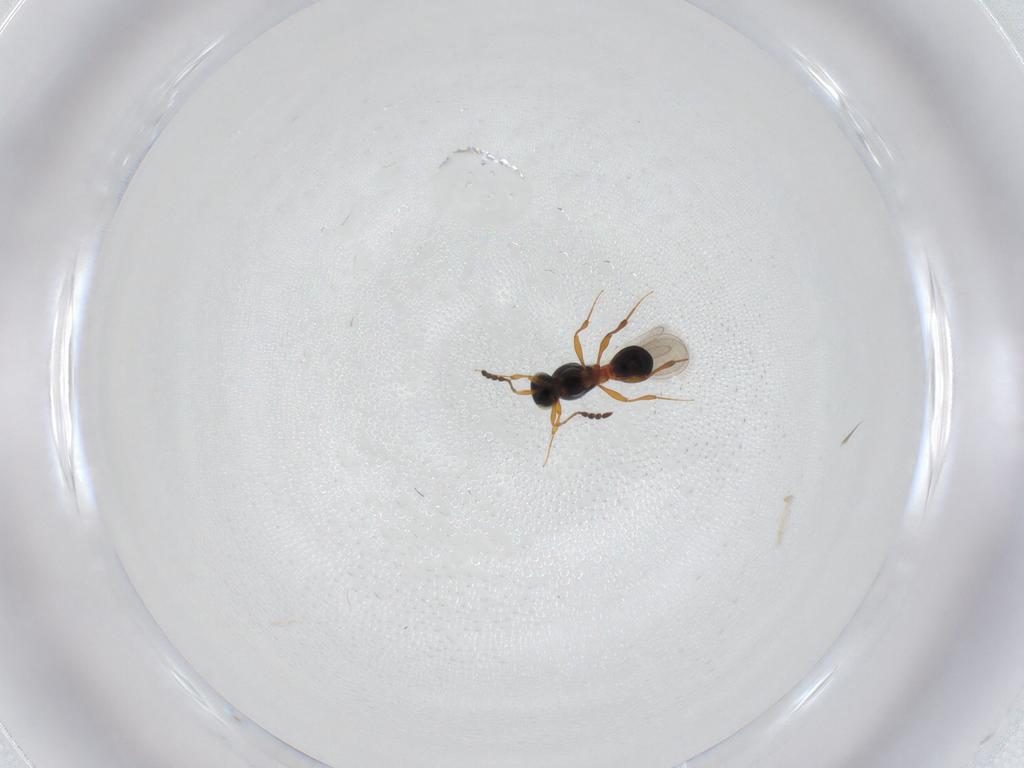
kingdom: Animalia
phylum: Arthropoda
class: Insecta
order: Hymenoptera
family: Platygastridae
